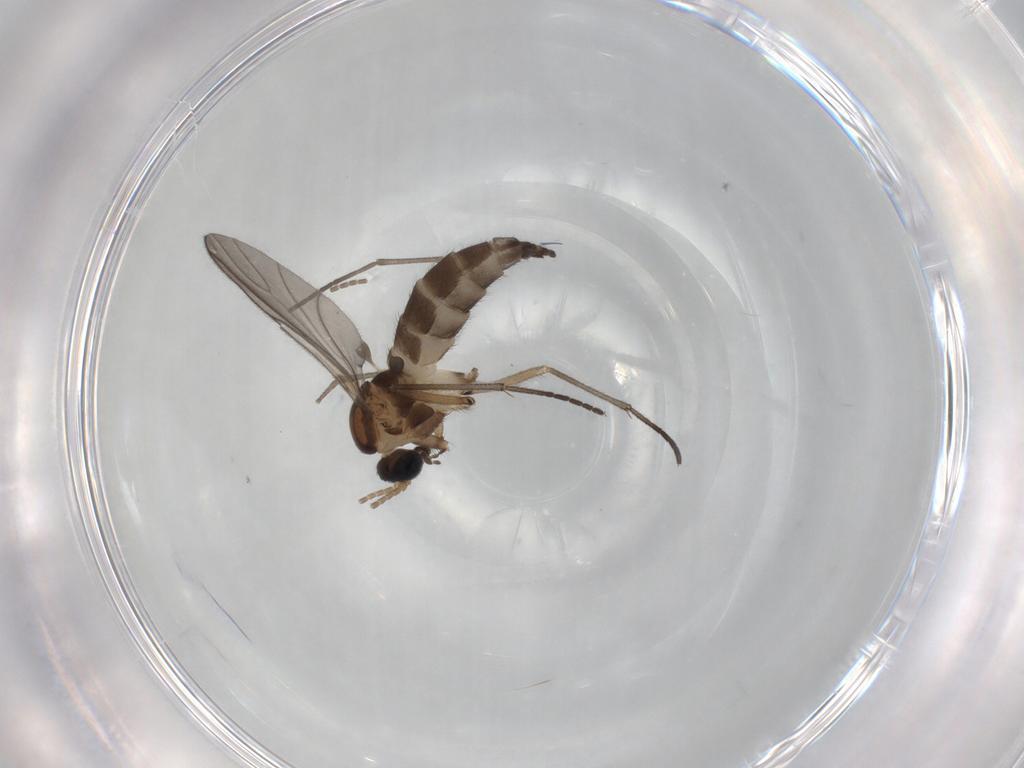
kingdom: Animalia
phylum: Arthropoda
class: Insecta
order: Diptera
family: Sciaridae
